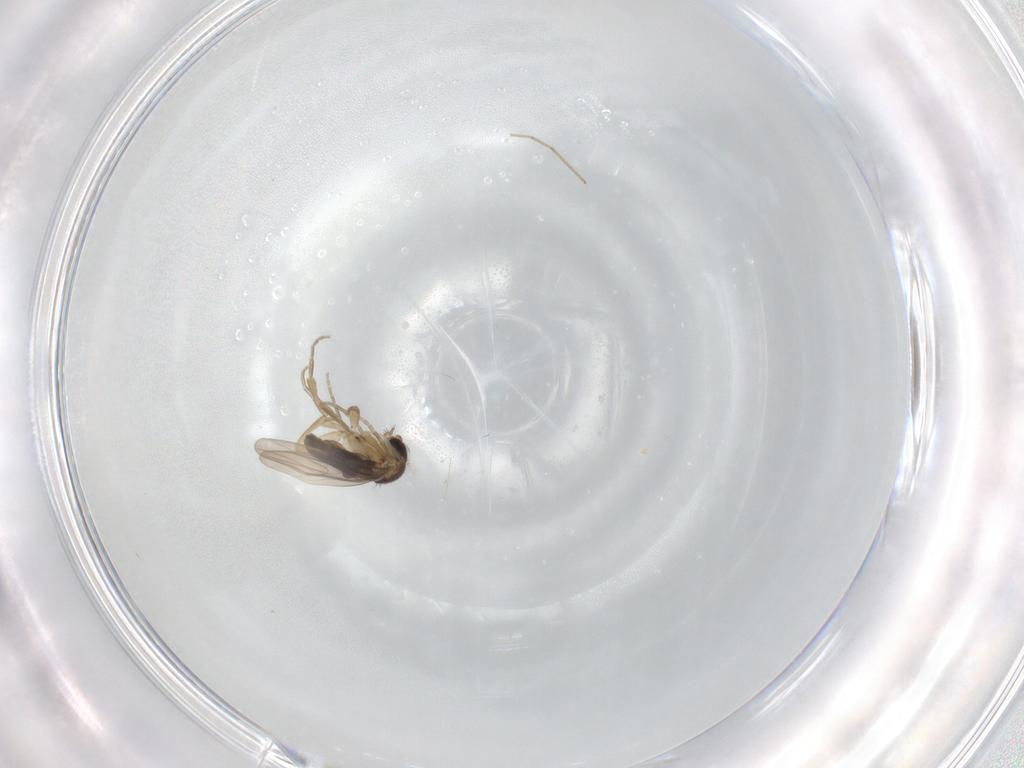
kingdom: Animalia
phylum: Arthropoda
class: Insecta
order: Diptera
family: Phoridae
